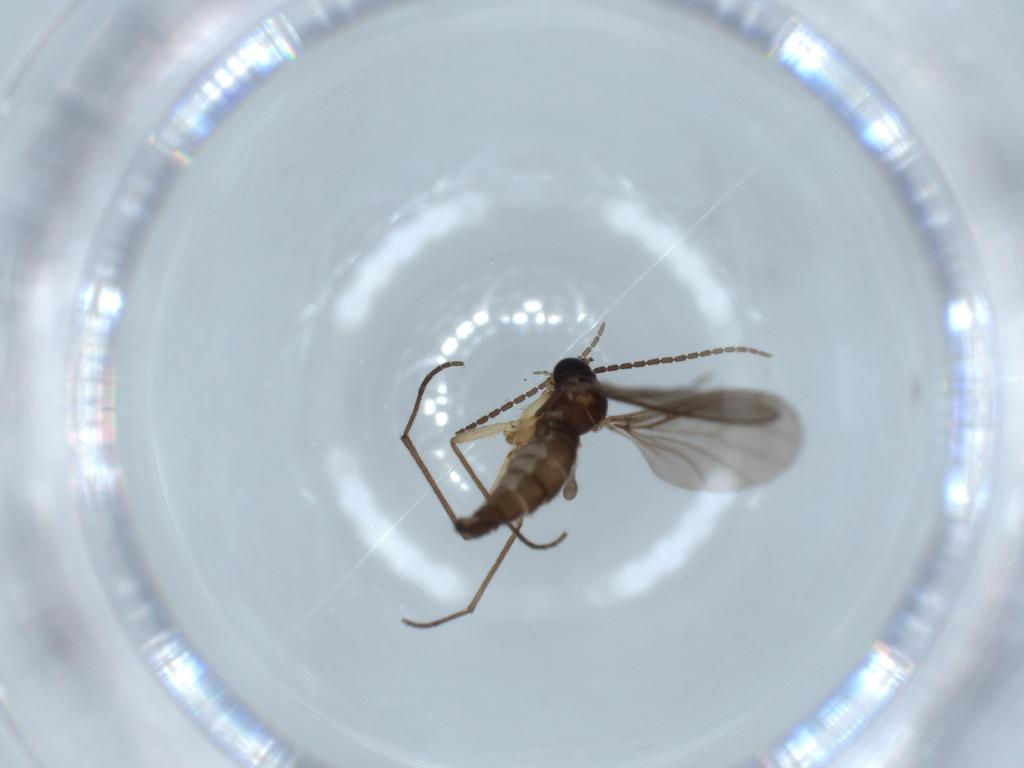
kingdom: Animalia
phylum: Arthropoda
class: Insecta
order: Diptera
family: Sciaridae
